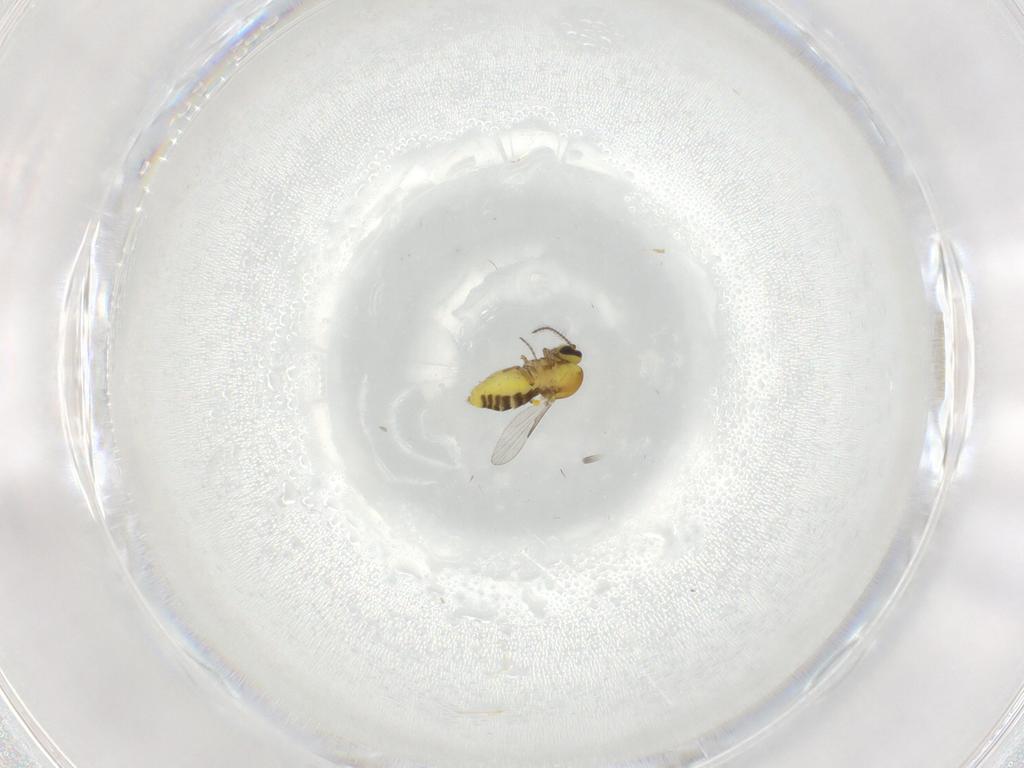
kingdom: Animalia
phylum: Arthropoda
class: Insecta
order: Diptera
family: Ceratopogonidae
